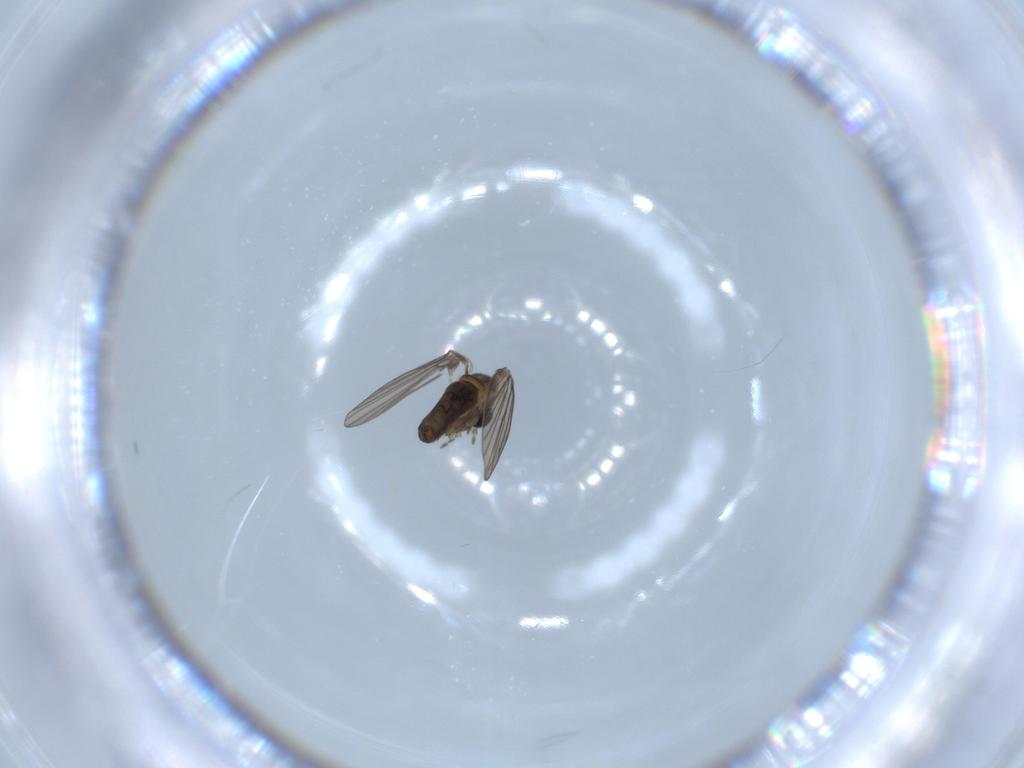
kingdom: Animalia
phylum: Arthropoda
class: Insecta
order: Diptera
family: Psychodidae
